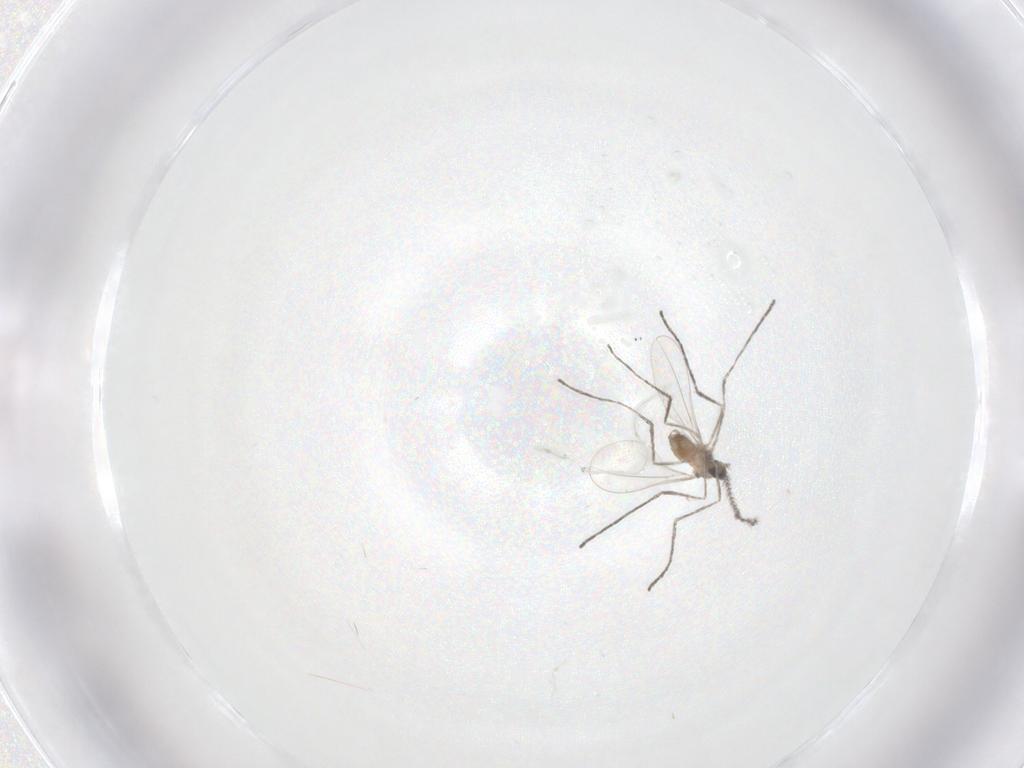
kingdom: Animalia
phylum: Arthropoda
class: Insecta
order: Diptera
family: Cecidomyiidae
